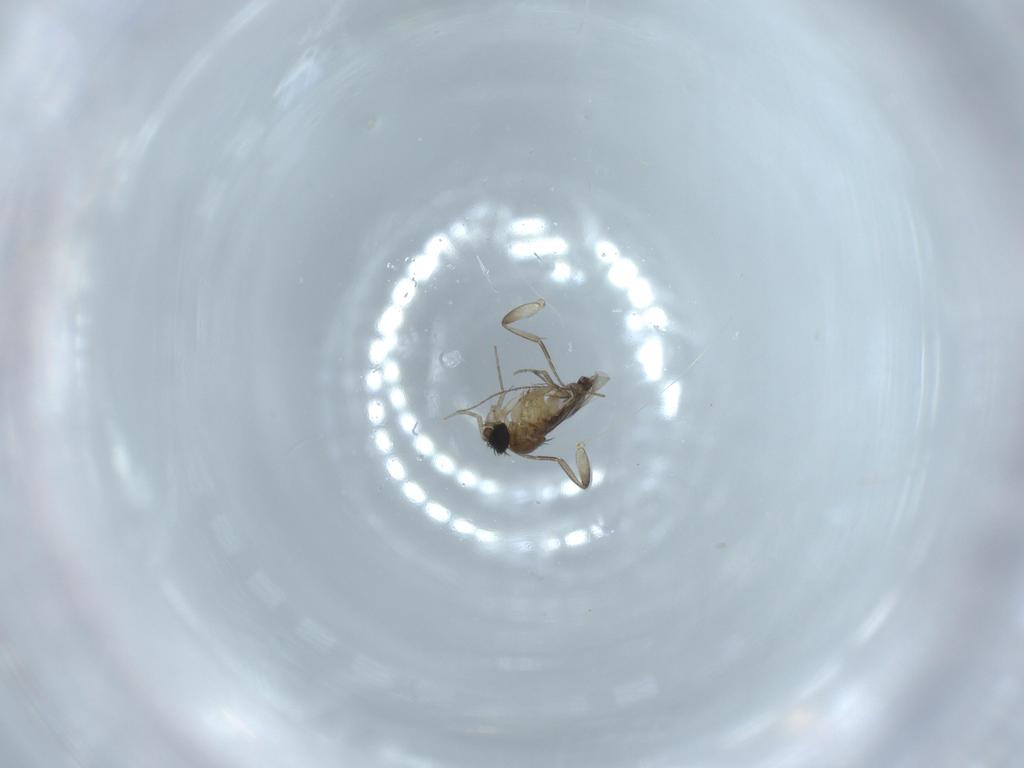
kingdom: Animalia
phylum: Arthropoda
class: Insecta
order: Diptera
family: Phoridae
